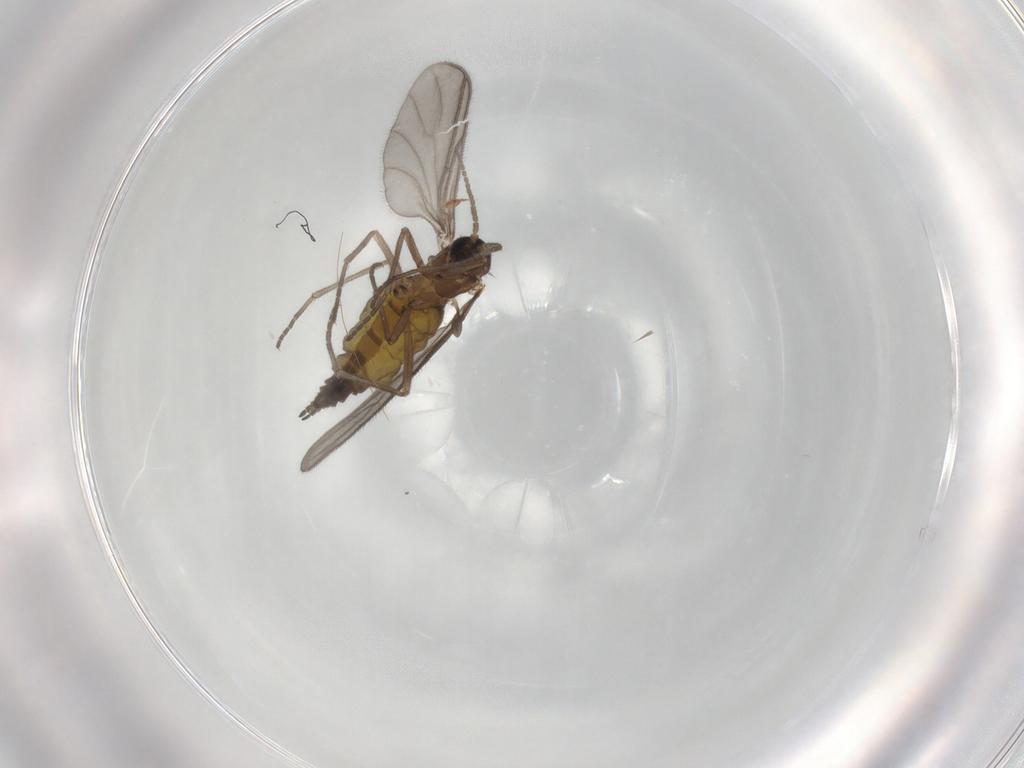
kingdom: Animalia
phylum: Arthropoda
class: Insecta
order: Diptera
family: Sciaridae
